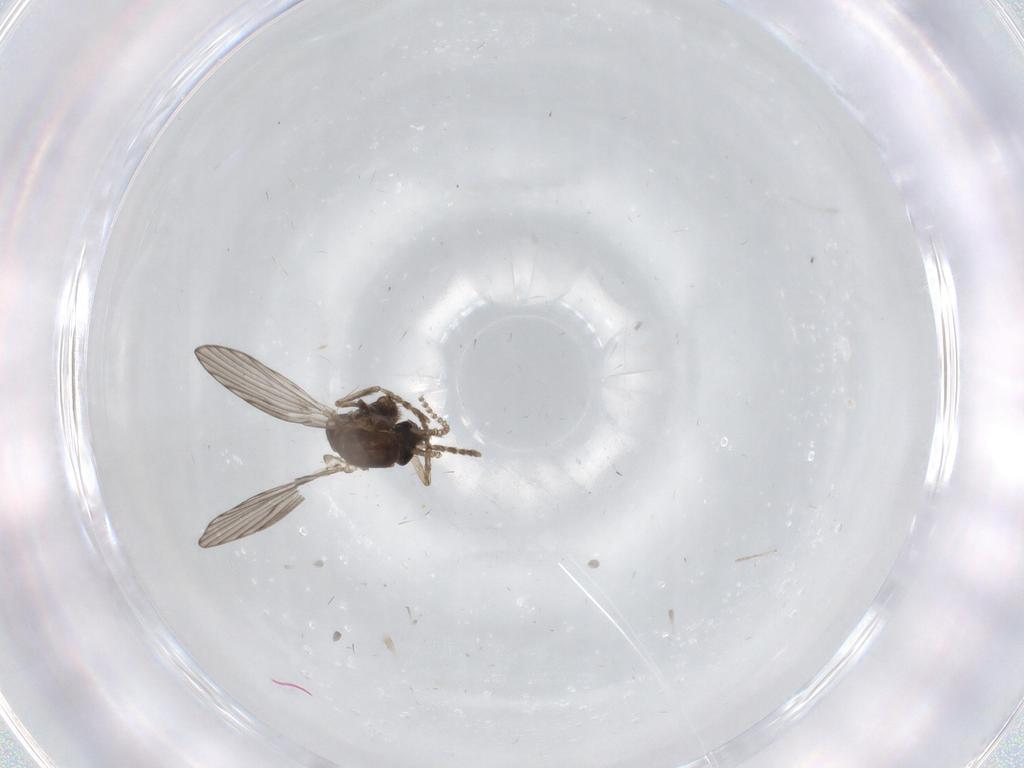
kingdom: Animalia
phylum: Arthropoda
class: Insecta
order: Diptera
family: Psychodidae
